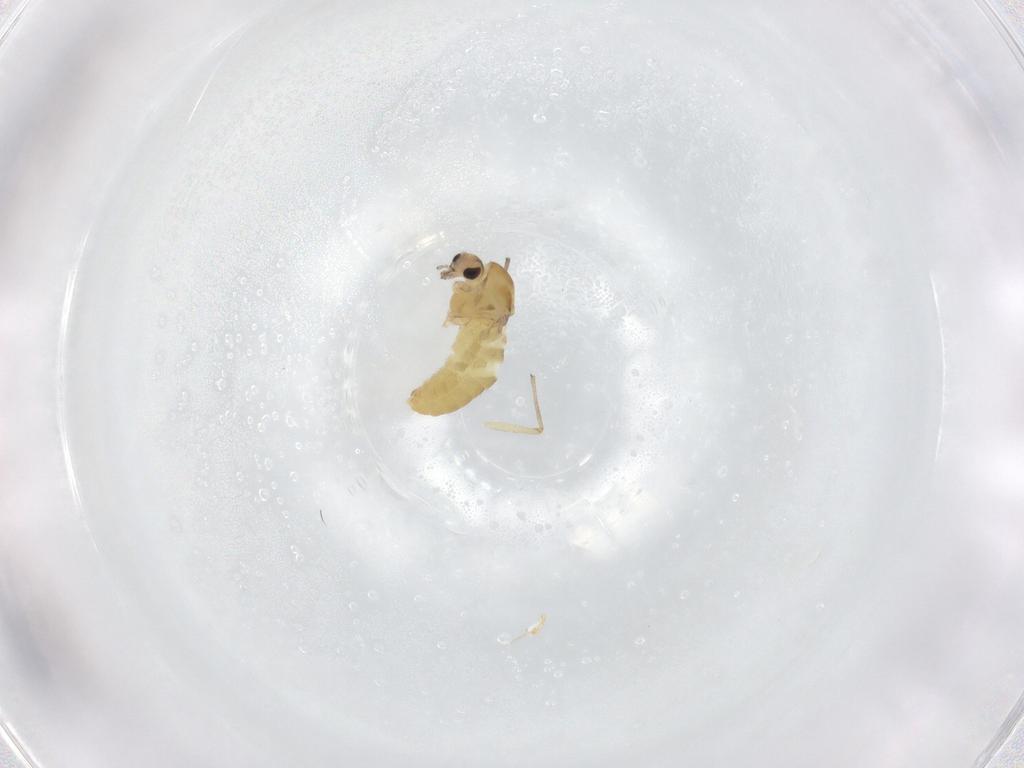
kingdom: Animalia
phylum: Arthropoda
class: Insecta
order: Diptera
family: Chironomidae
